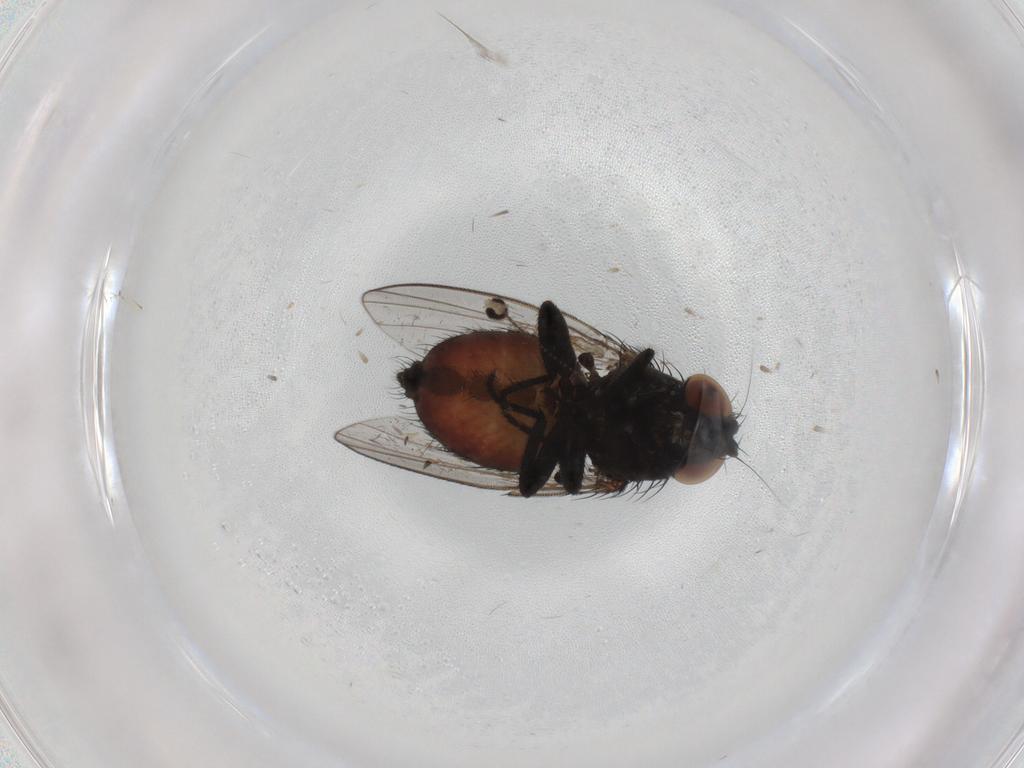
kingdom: Animalia
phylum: Arthropoda
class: Insecta
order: Diptera
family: Milichiidae
